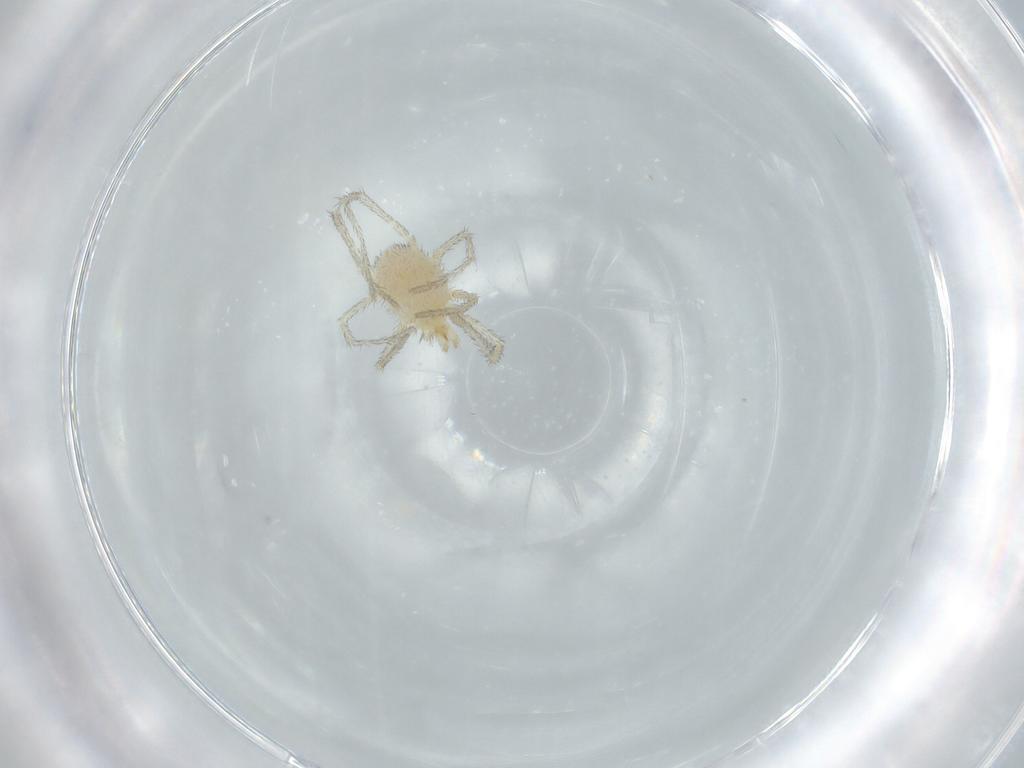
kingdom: Animalia
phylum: Arthropoda
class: Arachnida
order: Trombidiformes
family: Erythraeidae
